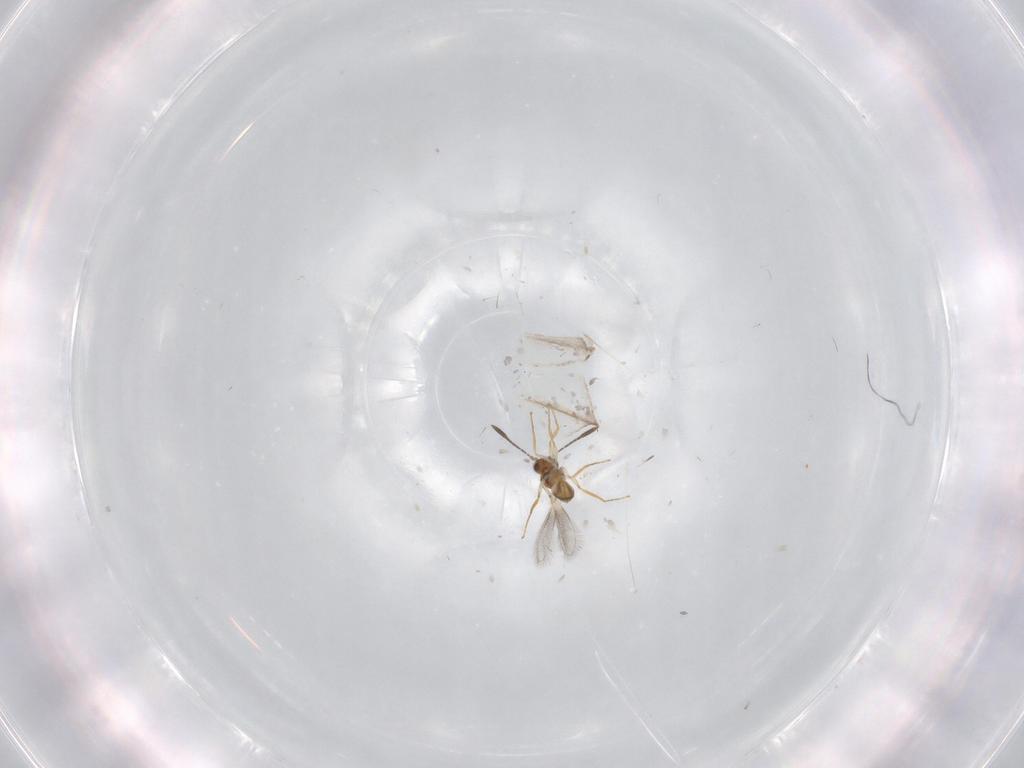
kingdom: Animalia
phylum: Arthropoda
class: Insecta
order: Hymenoptera
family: Mymaridae
